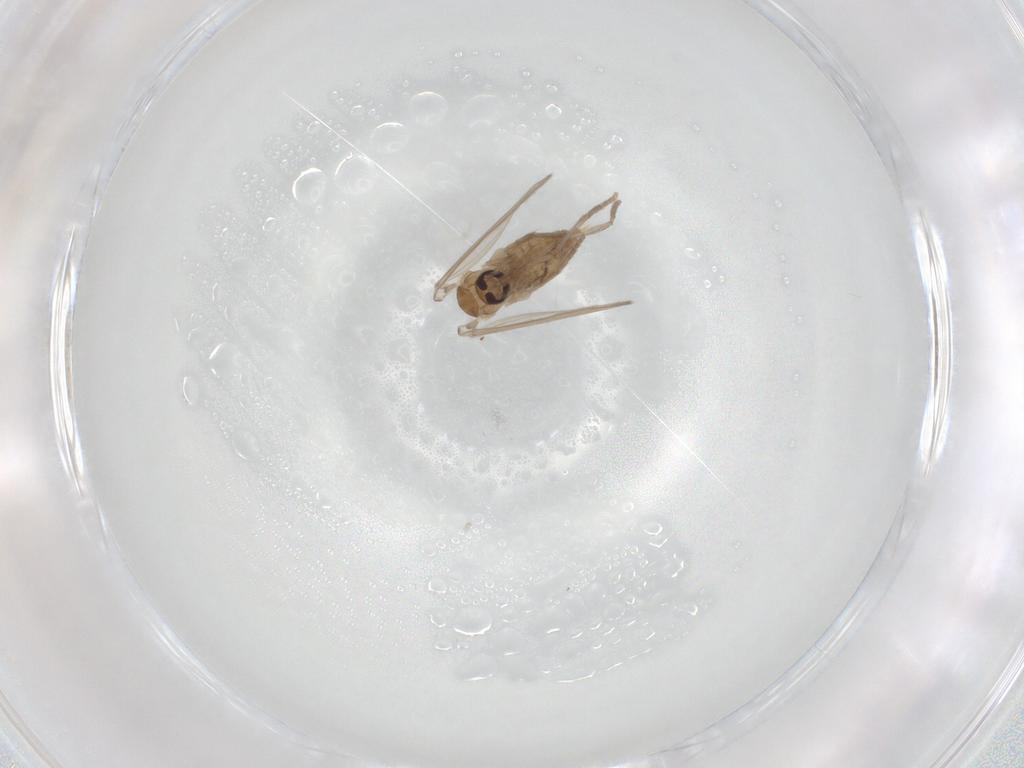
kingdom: Animalia
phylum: Arthropoda
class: Insecta
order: Diptera
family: Psychodidae
